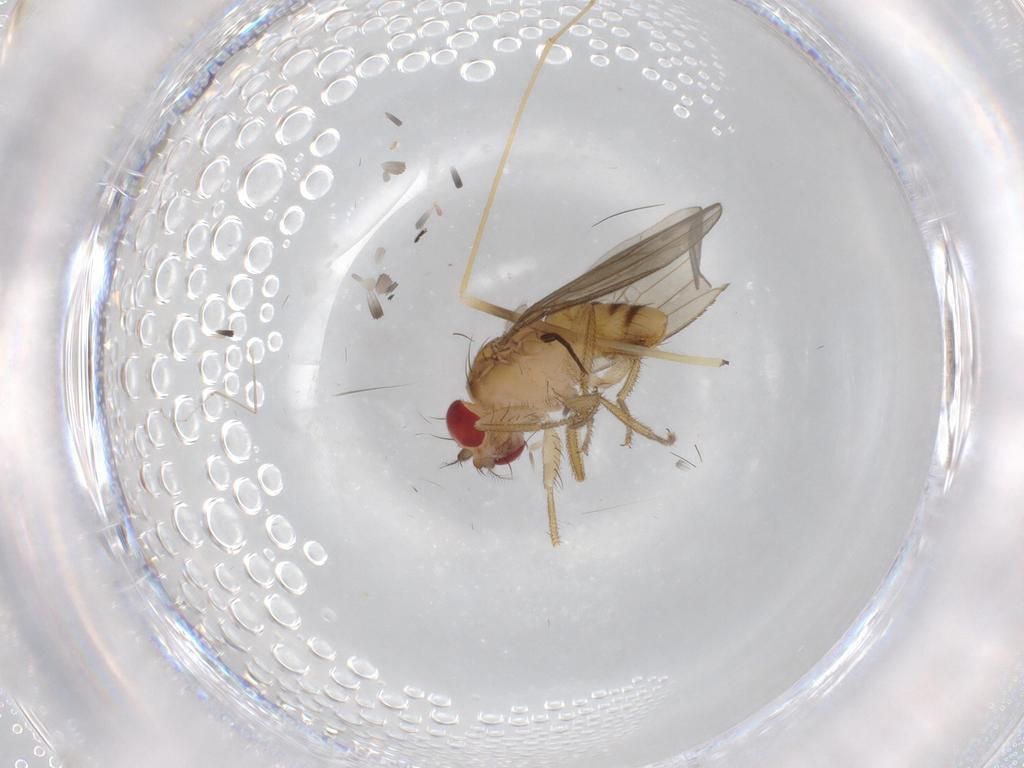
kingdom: Animalia
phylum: Arthropoda
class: Insecta
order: Diptera
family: Drosophilidae
